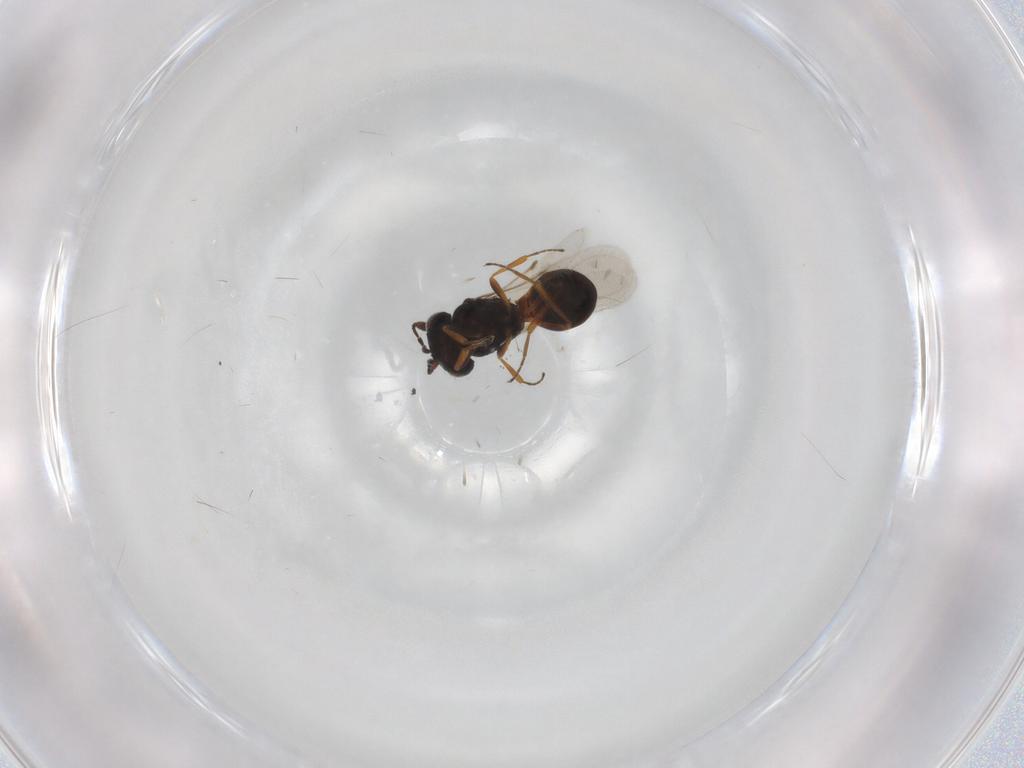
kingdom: Animalia
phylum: Arthropoda
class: Insecta
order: Hymenoptera
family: Scelionidae
